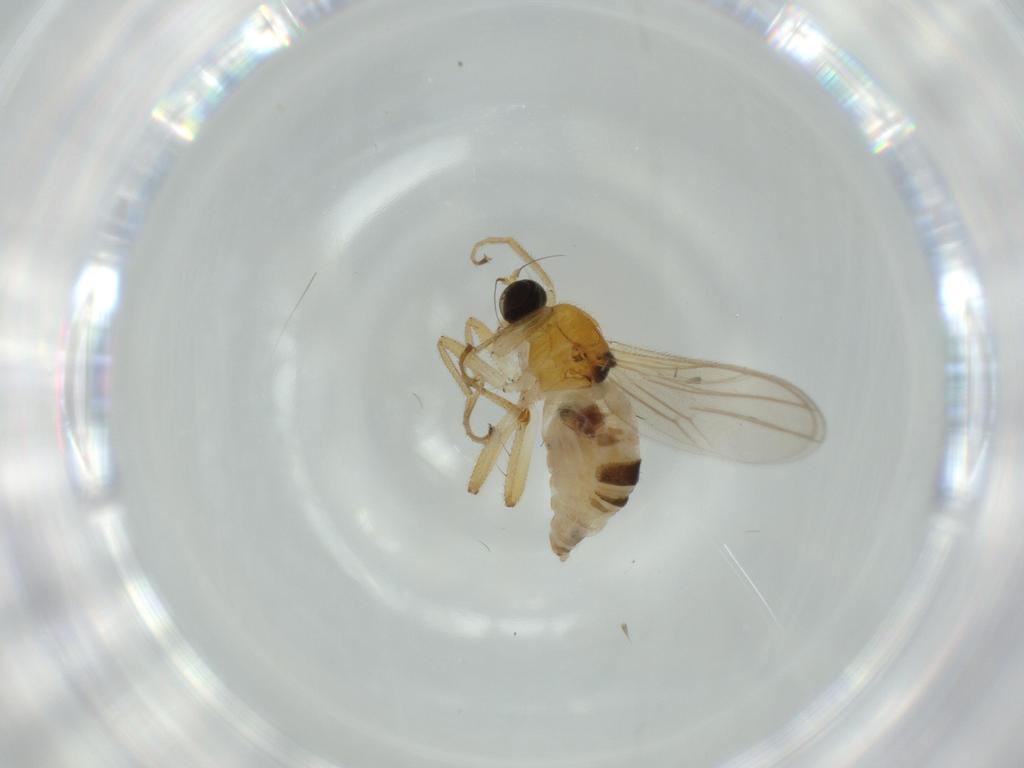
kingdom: Animalia
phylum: Arthropoda
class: Insecta
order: Diptera
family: Hybotidae
